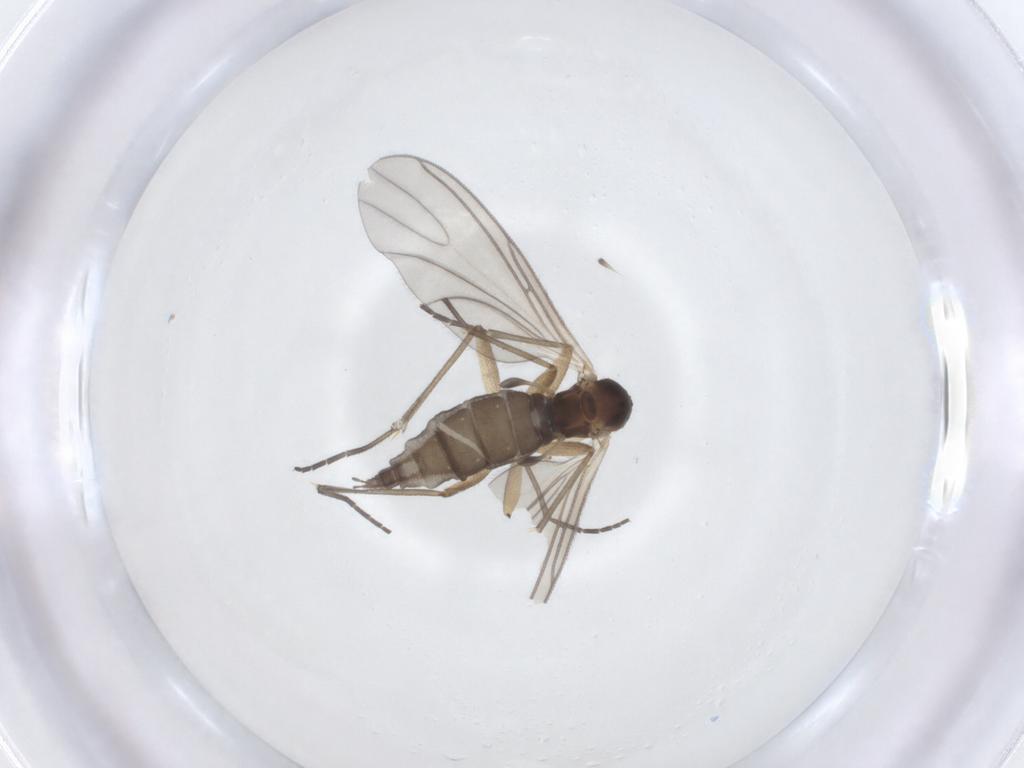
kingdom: Animalia
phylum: Arthropoda
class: Insecta
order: Diptera
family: Sciaridae
